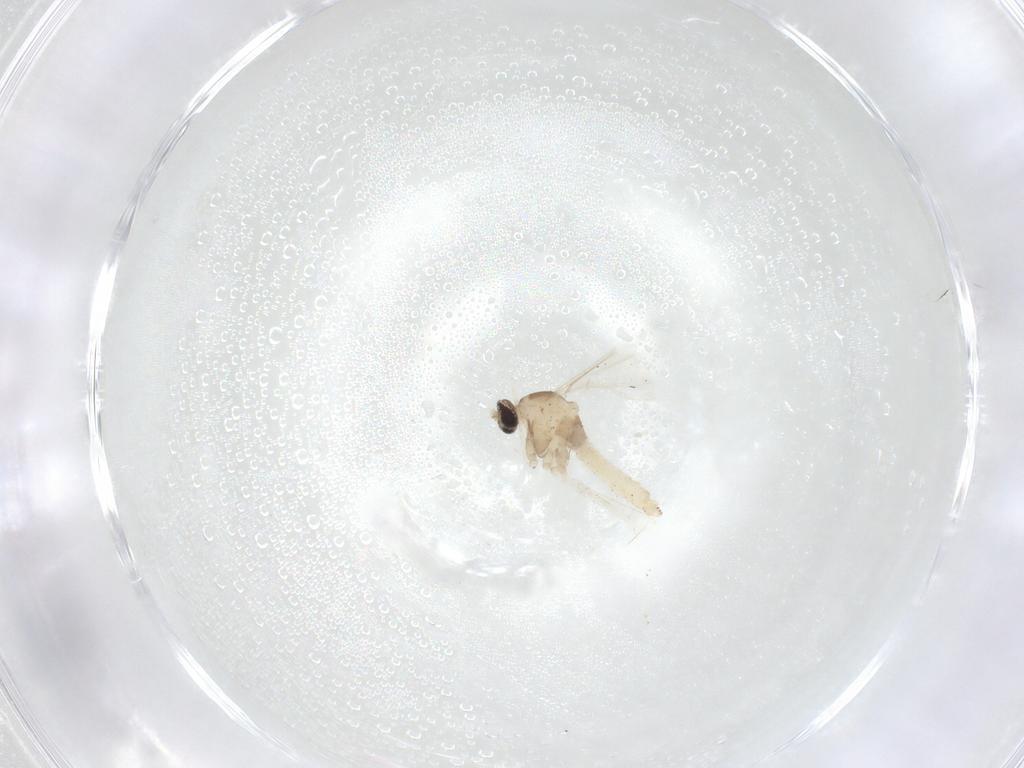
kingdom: Animalia
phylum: Arthropoda
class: Insecta
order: Diptera
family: Cecidomyiidae
